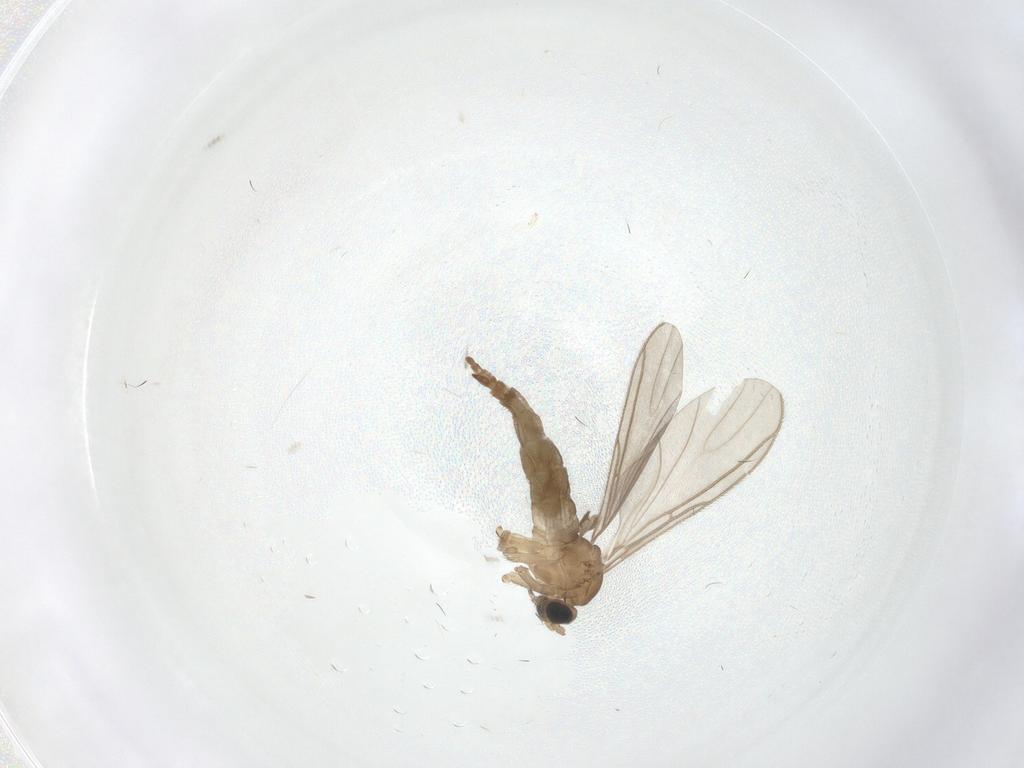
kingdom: Animalia
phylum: Arthropoda
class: Insecta
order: Diptera
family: Sciaridae
